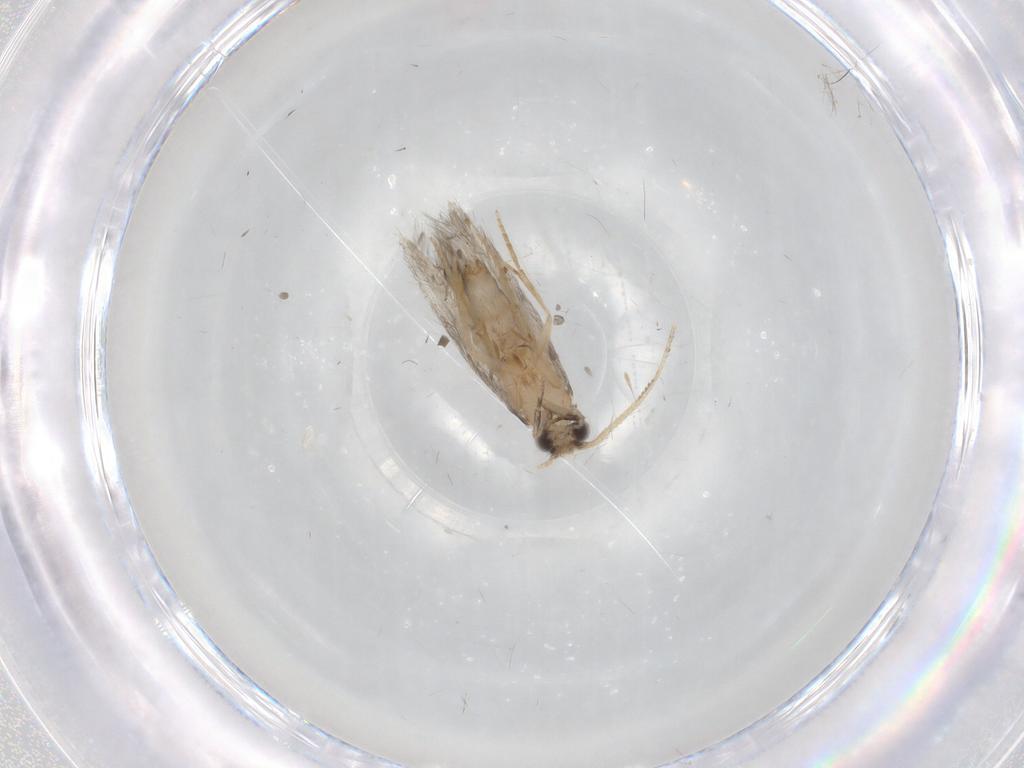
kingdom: Animalia
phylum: Arthropoda
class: Insecta
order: Trichoptera
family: Hydroptilidae
